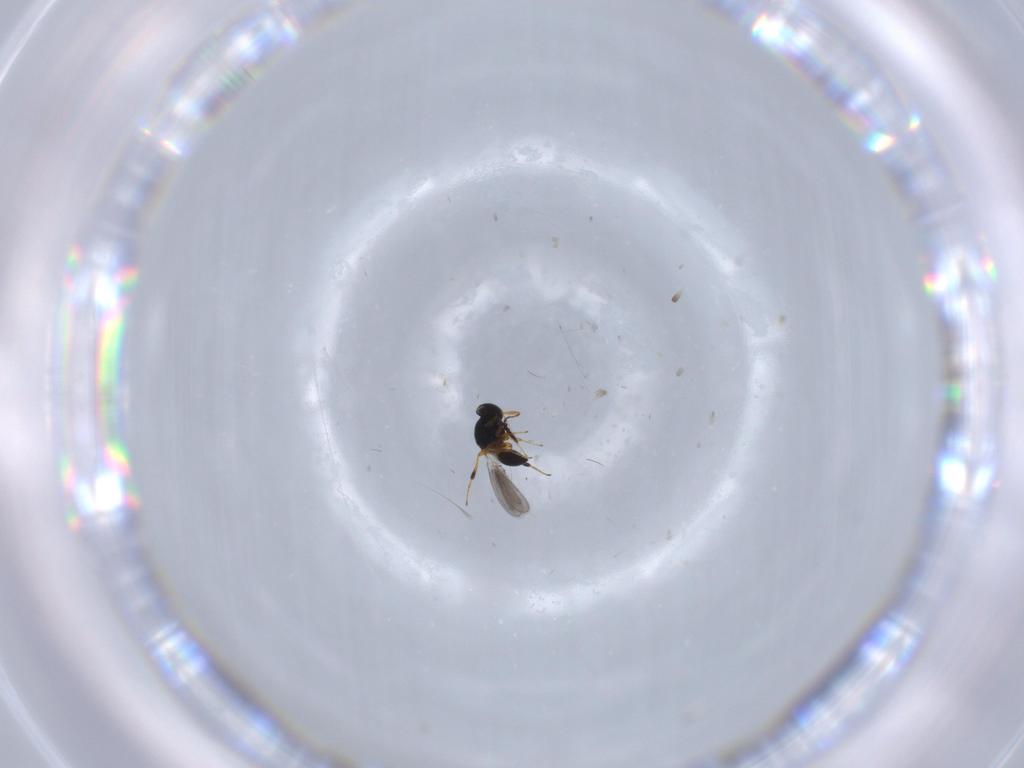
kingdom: Animalia
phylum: Arthropoda
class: Insecta
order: Hymenoptera
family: Platygastridae
